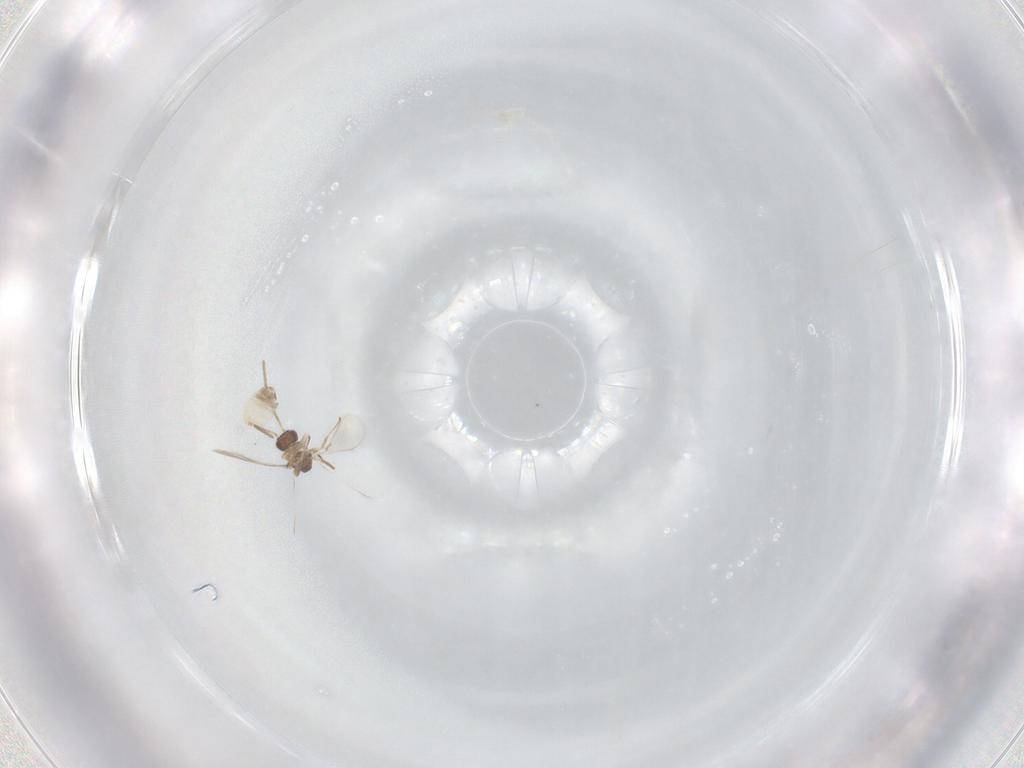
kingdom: Animalia
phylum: Arthropoda
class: Insecta
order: Hymenoptera
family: Mymaridae
